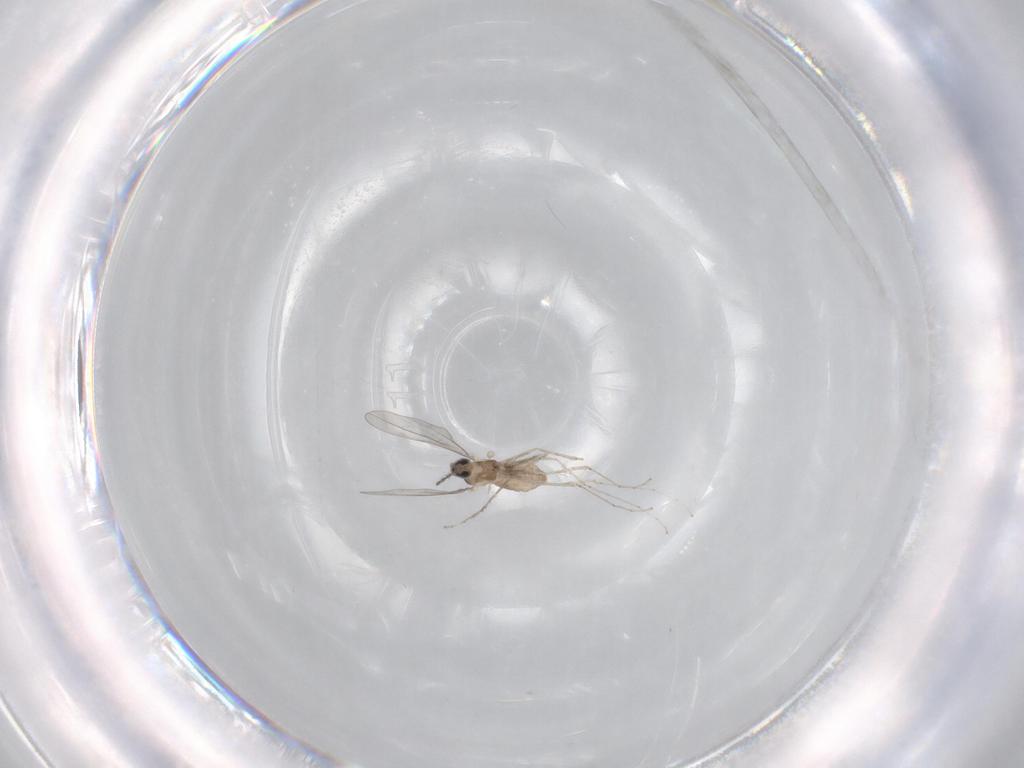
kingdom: Animalia
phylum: Arthropoda
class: Insecta
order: Diptera
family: Cecidomyiidae
